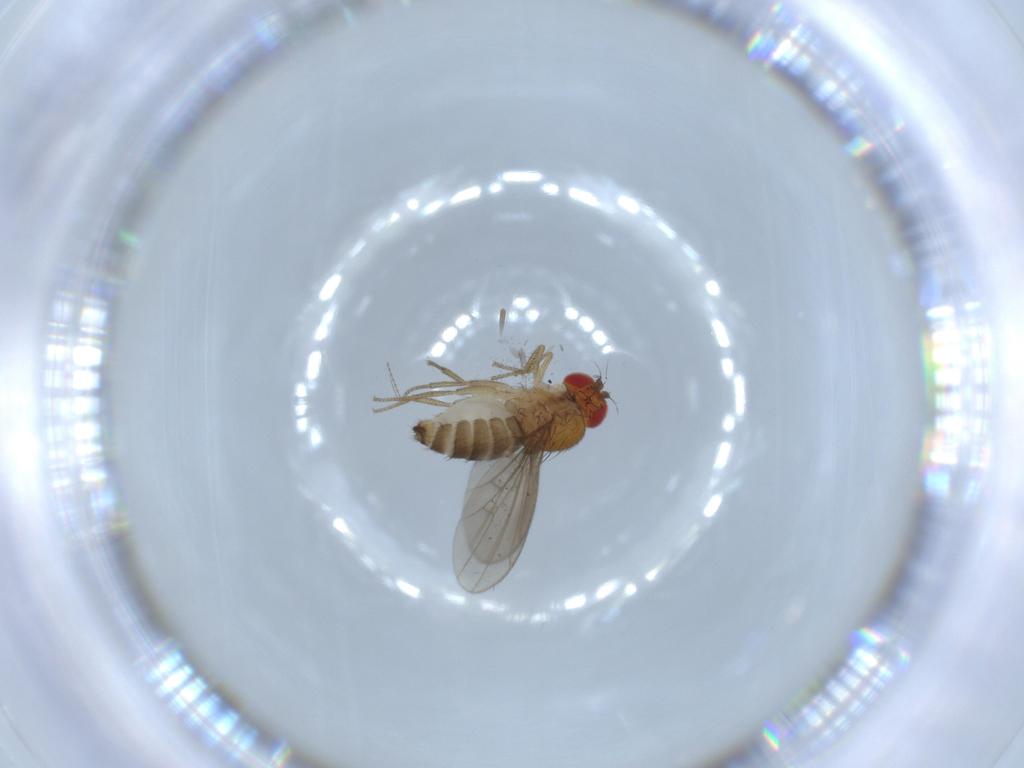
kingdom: Animalia
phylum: Arthropoda
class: Insecta
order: Diptera
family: Drosophilidae
